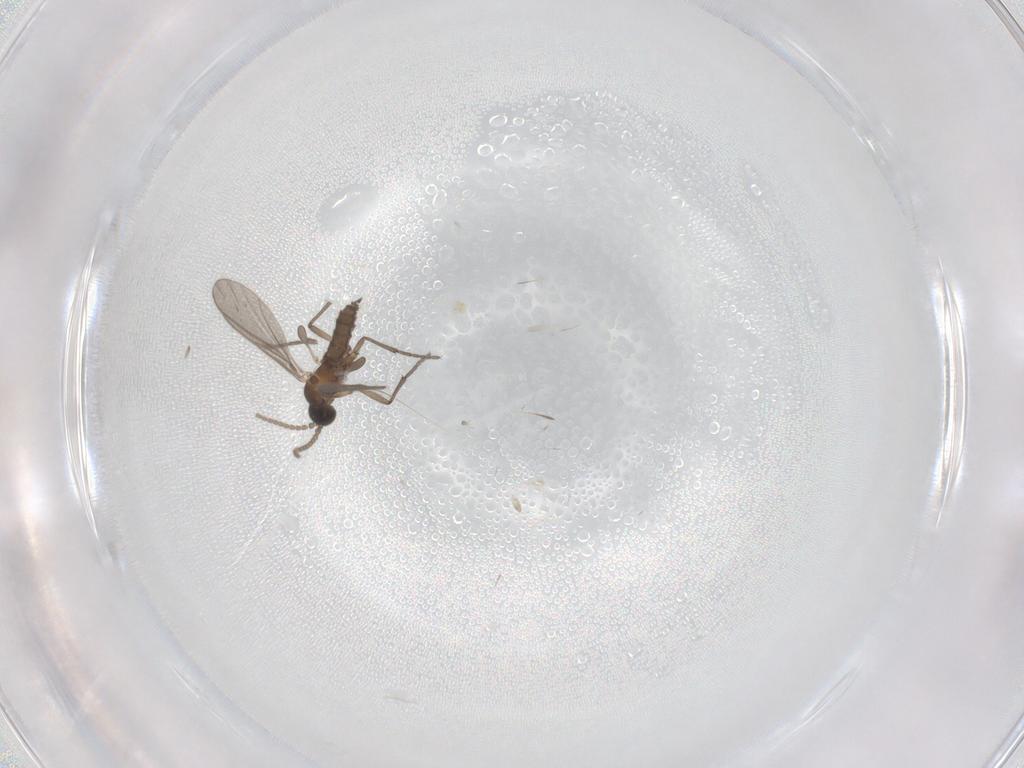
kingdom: Animalia
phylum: Arthropoda
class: Insecta
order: Diptera
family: Sciaridae
